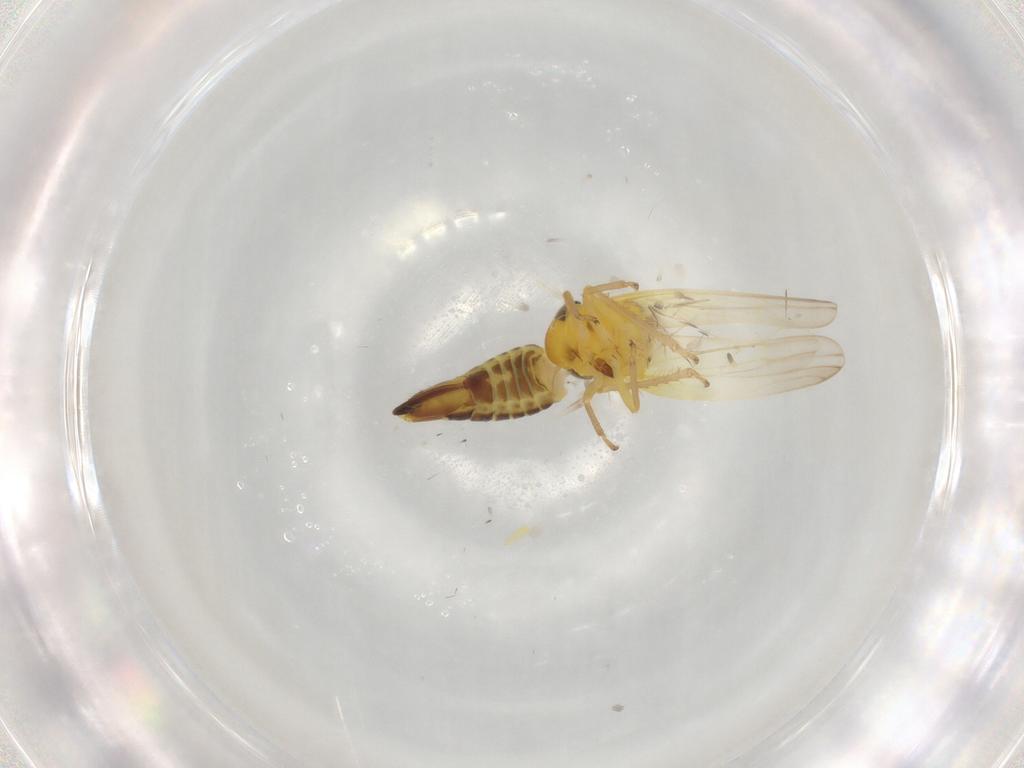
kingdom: Animalia
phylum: Arthropoda
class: Insecta
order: Hemiptera
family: Cicadellidae
